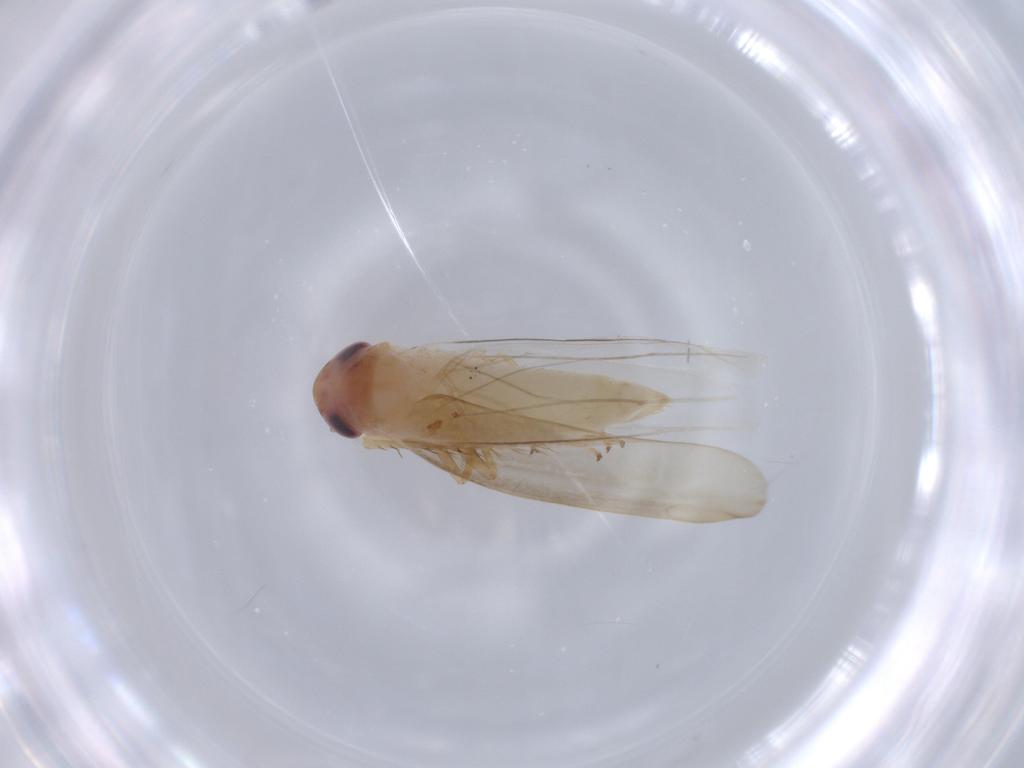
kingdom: Animalia
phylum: Arthropoda
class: Insecta
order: Hemiptera
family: Cicadellidae
